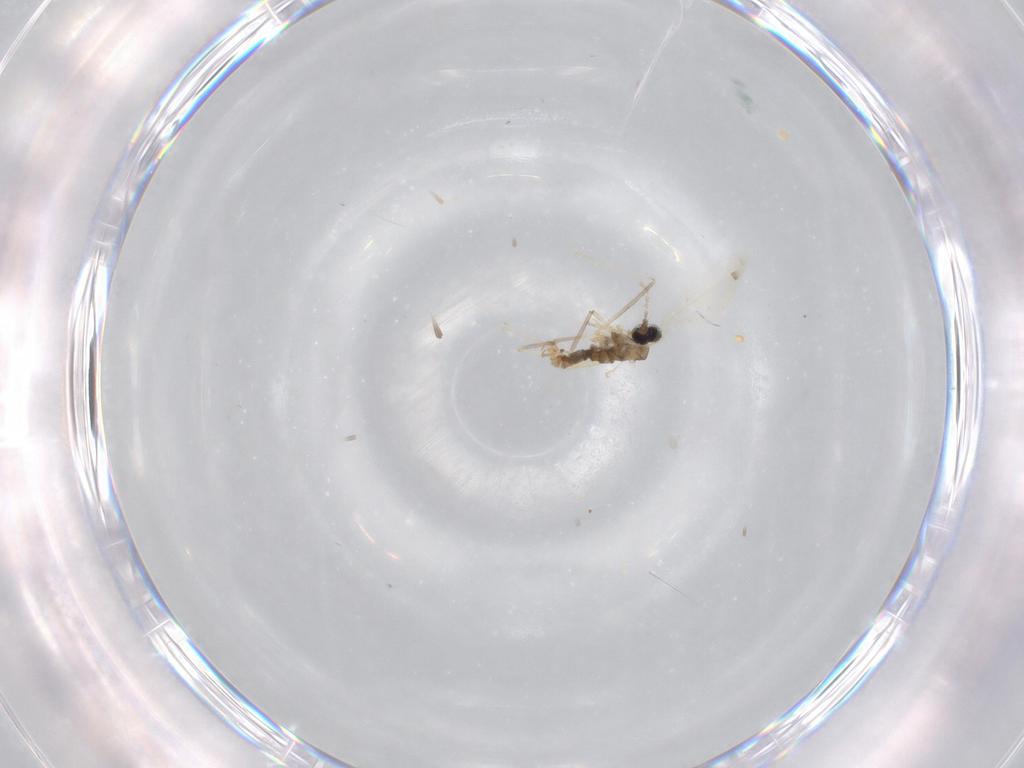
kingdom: Animalia
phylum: Arthropoda
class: Insecta
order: Diptera
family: Cecidomyiidae
